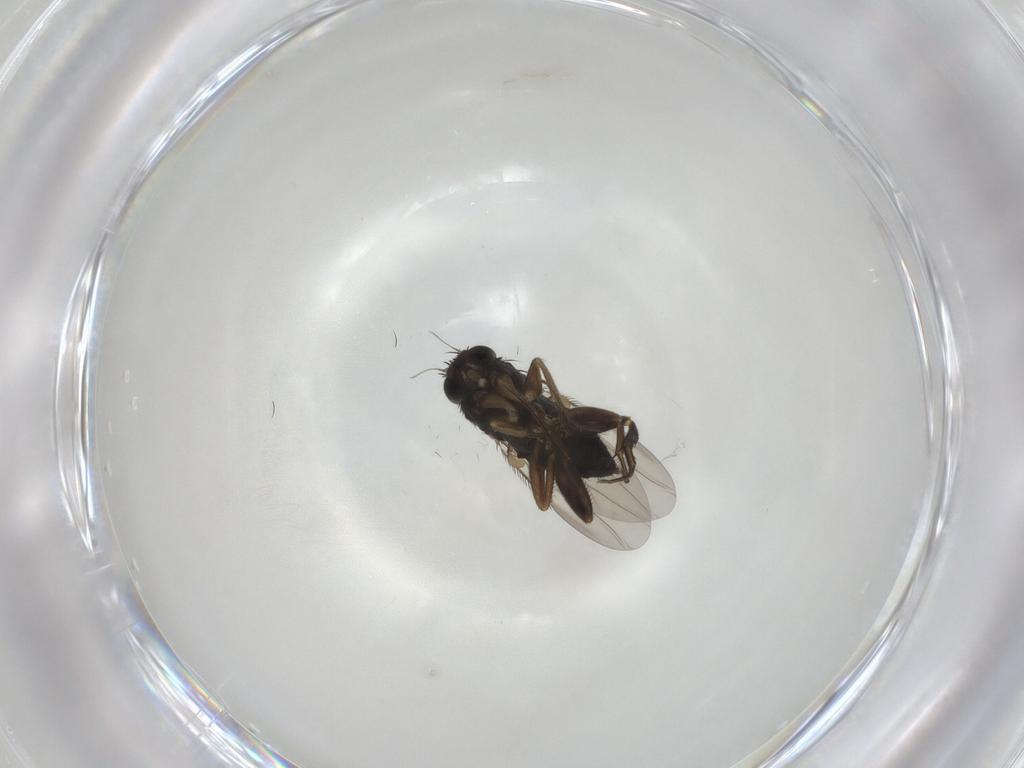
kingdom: Animalia
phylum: Arthropoda
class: Insecta
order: Diptera
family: Phoridae
